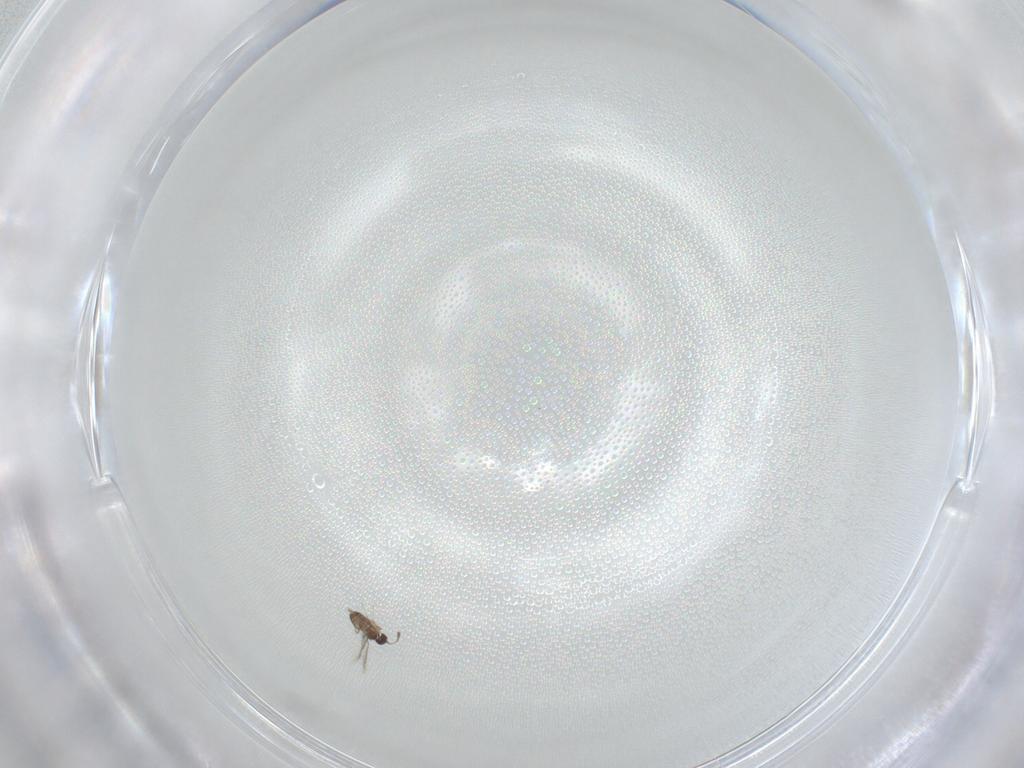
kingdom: Animalia
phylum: Arthropoda
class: Insecta
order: Hymenoptera
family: Mymaridae
